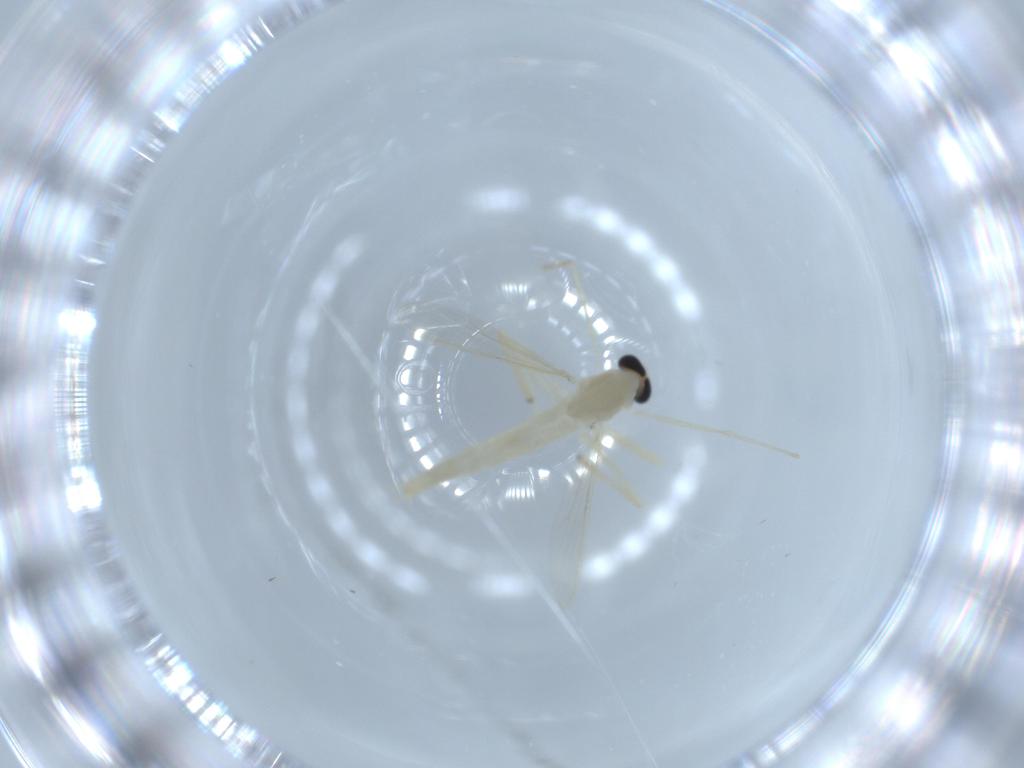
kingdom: Animalia
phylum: Arthropoda
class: Insecta
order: Diptera
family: Chironomidae
